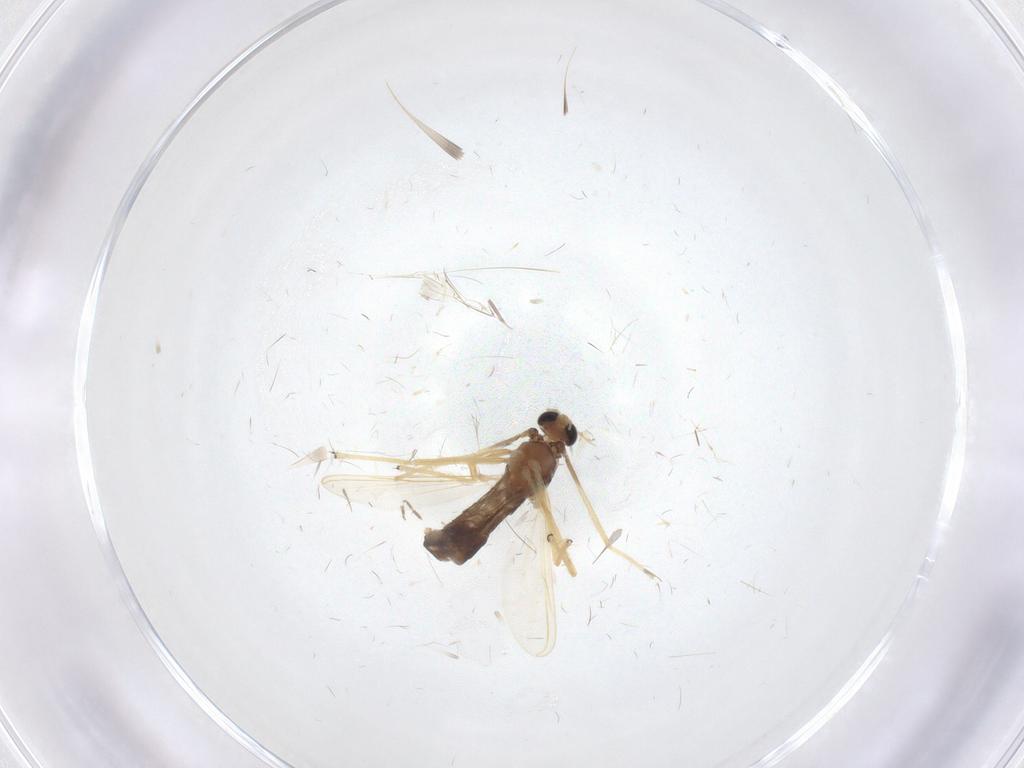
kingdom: Animalia
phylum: Arthropoda
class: Insecta
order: Diptera
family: Chironomidae
